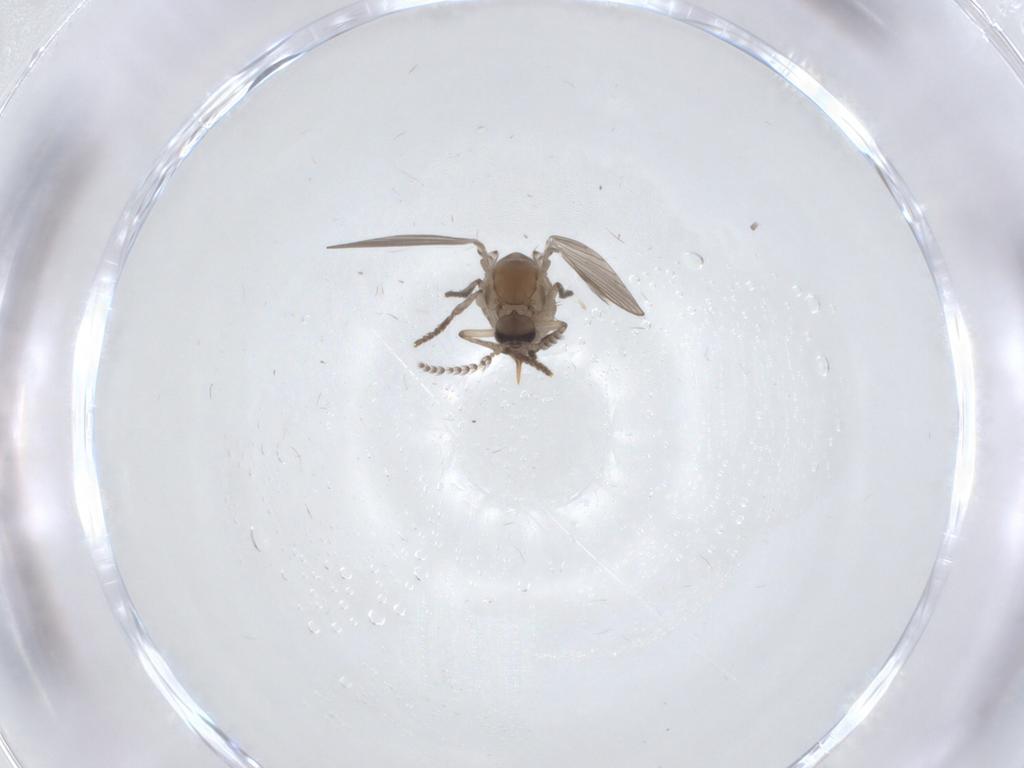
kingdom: Animalia
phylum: Arthropoda
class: Insecta
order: Diptera
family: Psychodidae
